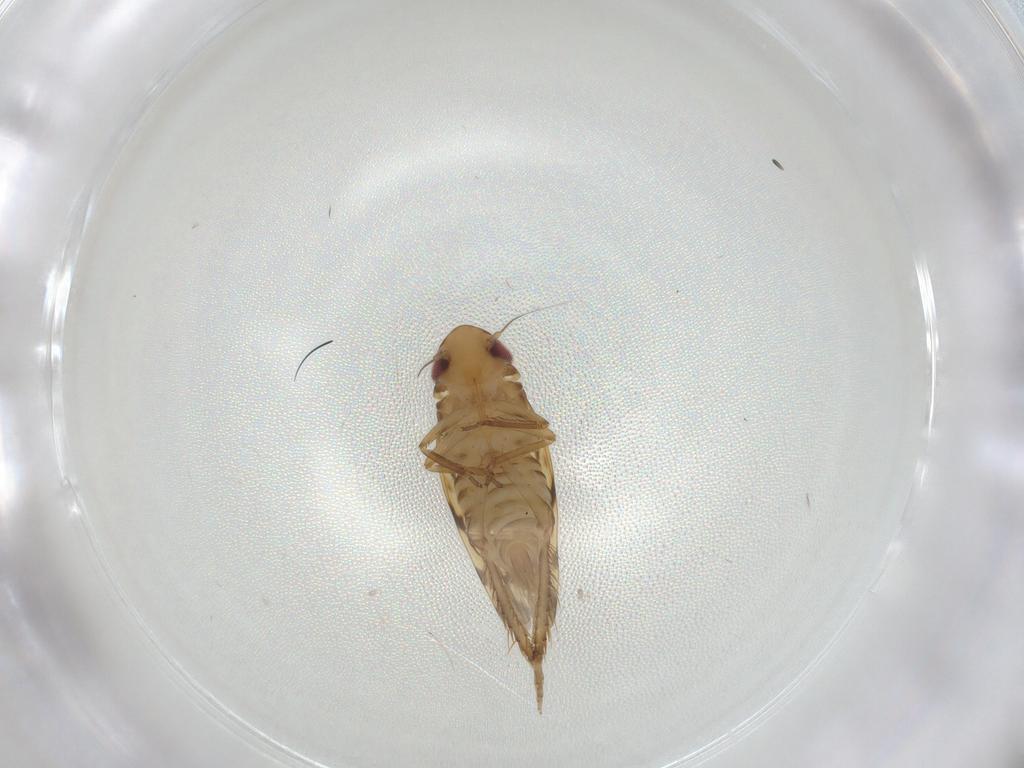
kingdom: Animalia
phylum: Arthropoda
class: Insecta
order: Hemiptera
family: Cicadellidae
